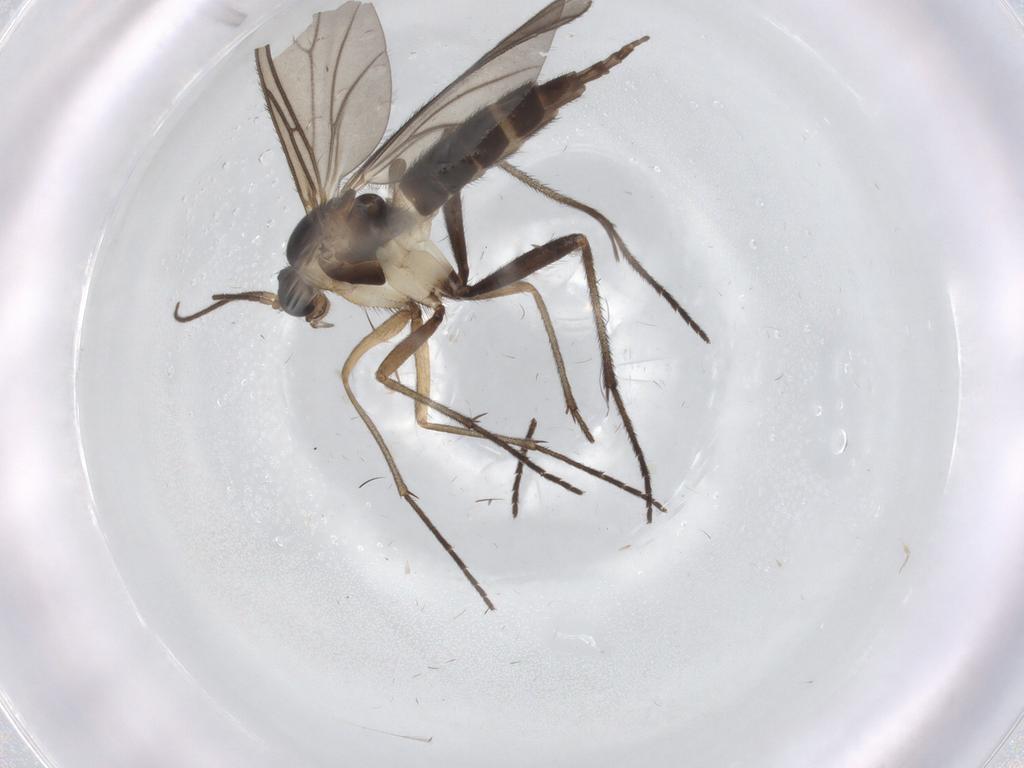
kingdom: Animalia
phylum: Arthropoda
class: Insecta
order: Diptera
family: Sciaridae
